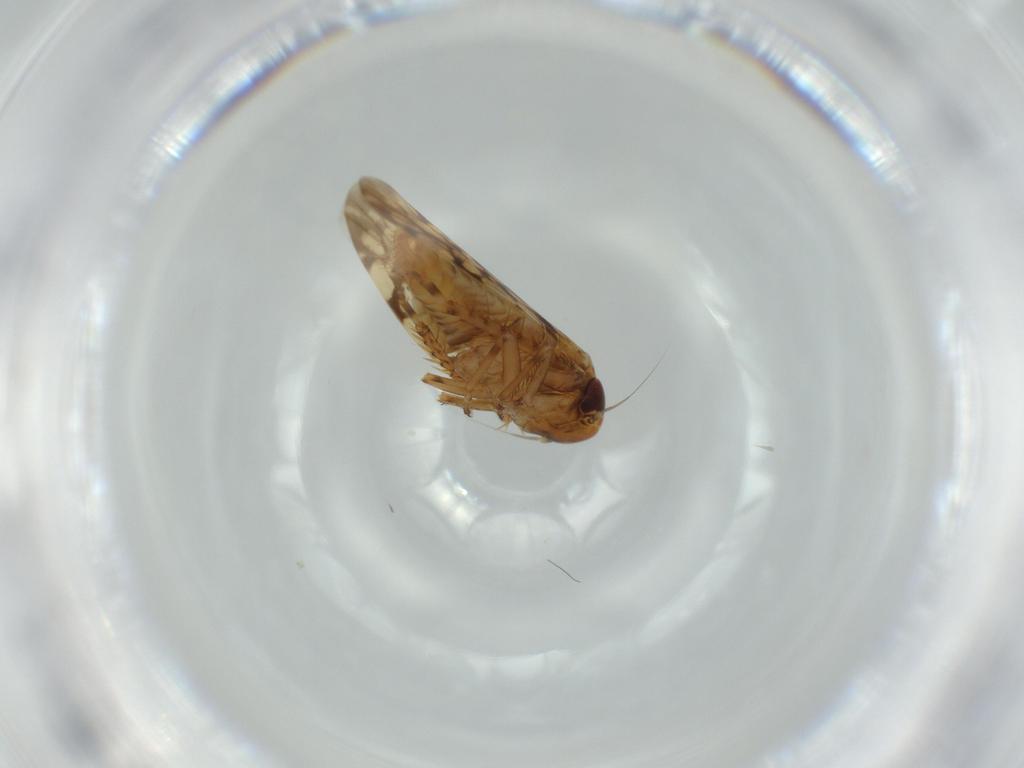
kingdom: Animalia
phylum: Arthropoda
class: Insecta
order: Hemiptera
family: Cicadellidae
